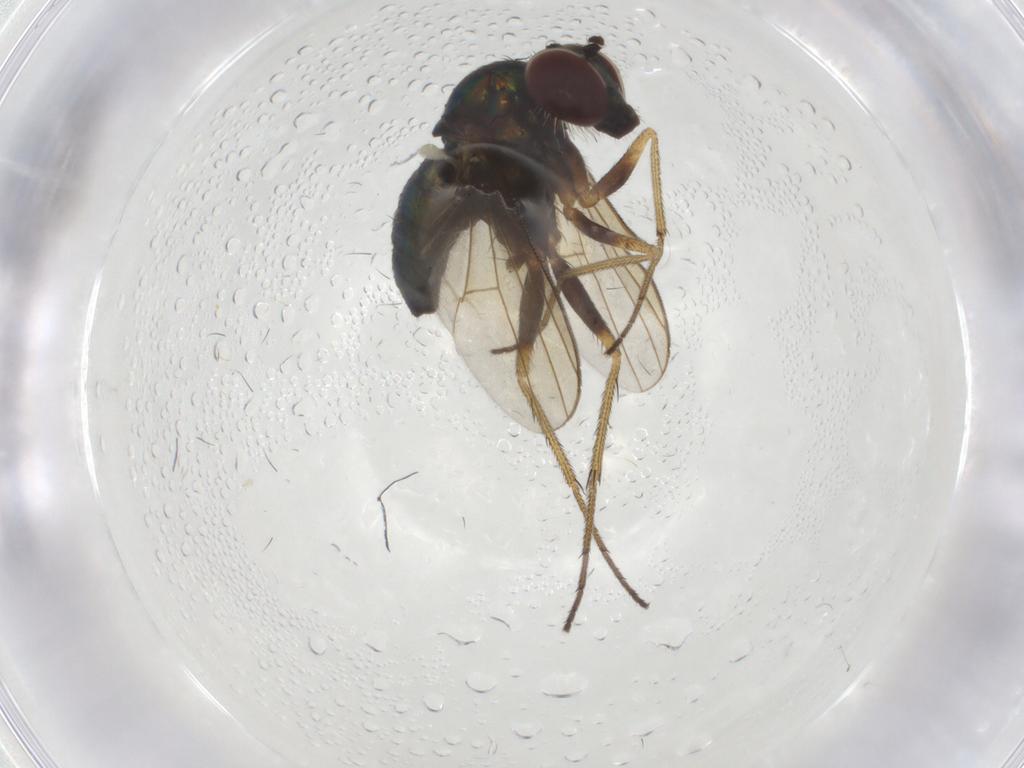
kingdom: Animalia
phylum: Arthropoda
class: Insecta
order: Diptera
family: Dolichopodidae
